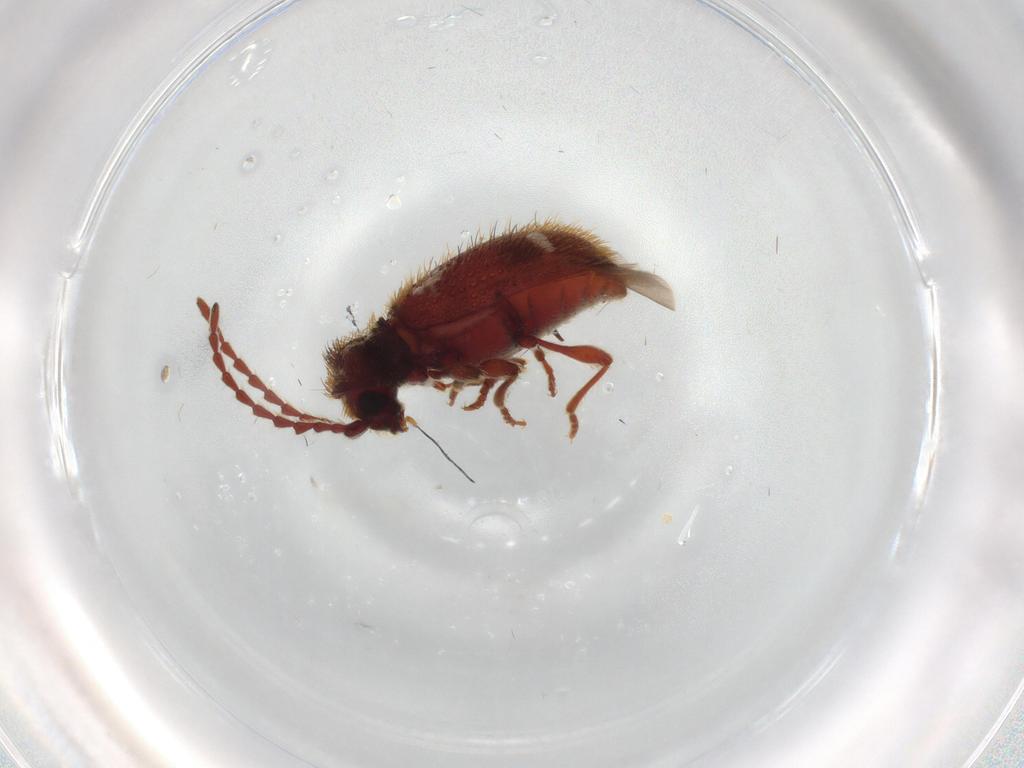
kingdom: Animalia
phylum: Arthropoda
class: Insecta
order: Coleoptera
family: Ptinidae
